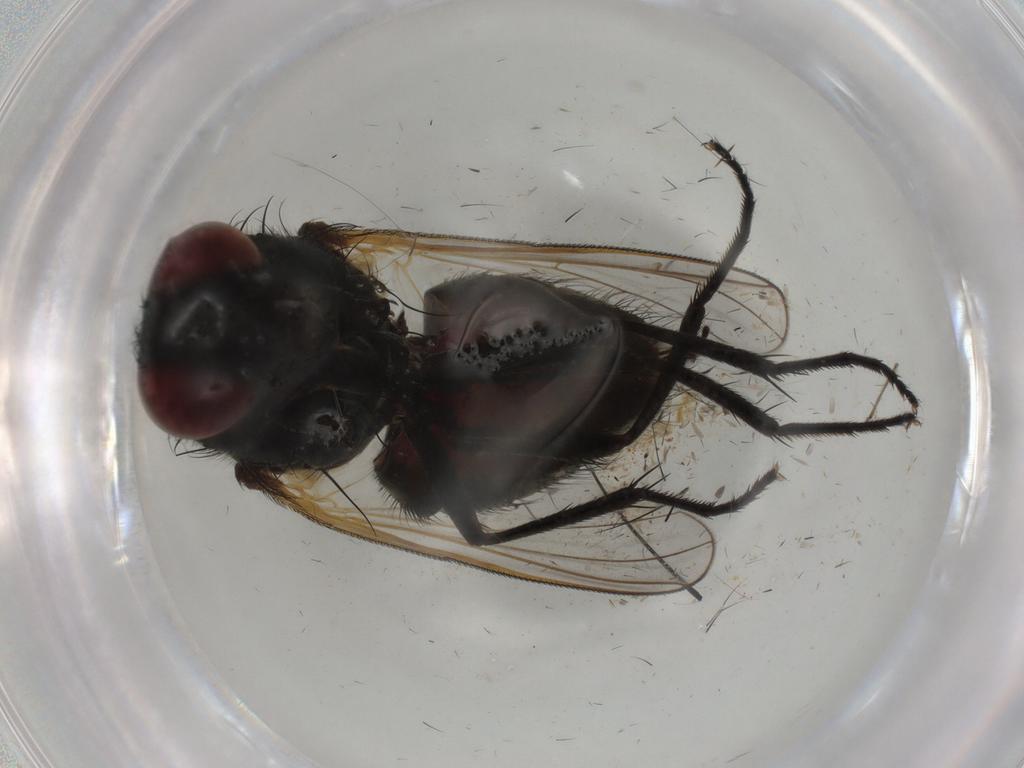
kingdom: Animalia
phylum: Arthropoda
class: Insecta
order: Diptera
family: Muscidae
